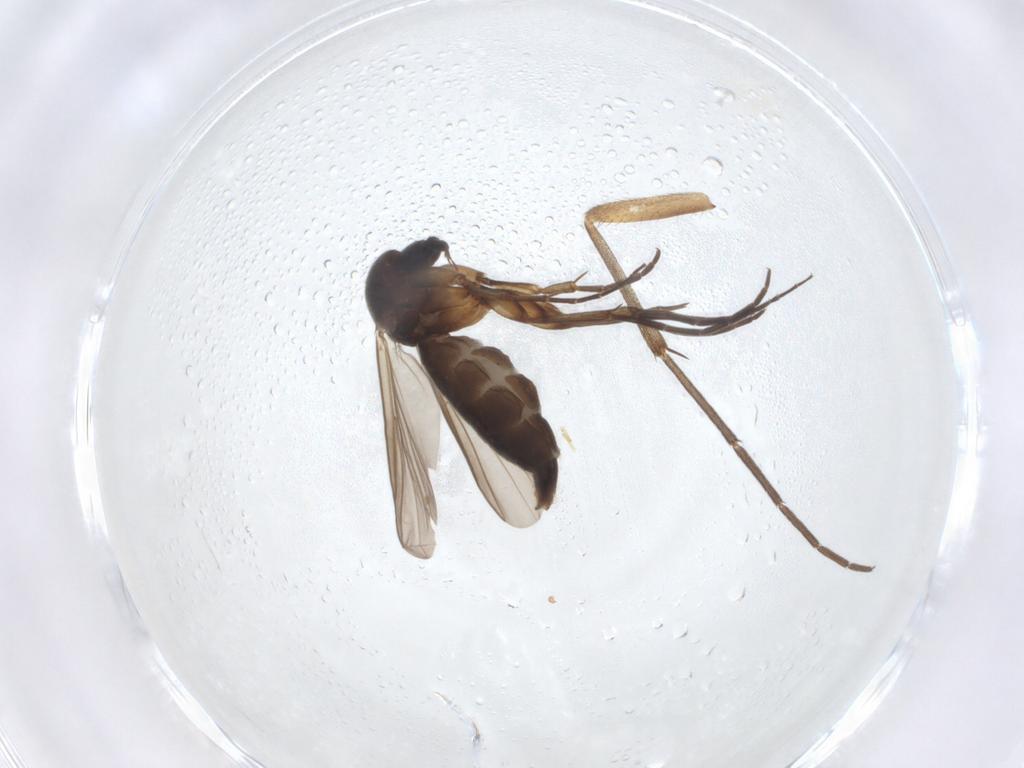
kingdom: Animalia
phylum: Arthropoda
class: Insecta
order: Diptera
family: Mycetophilidae
